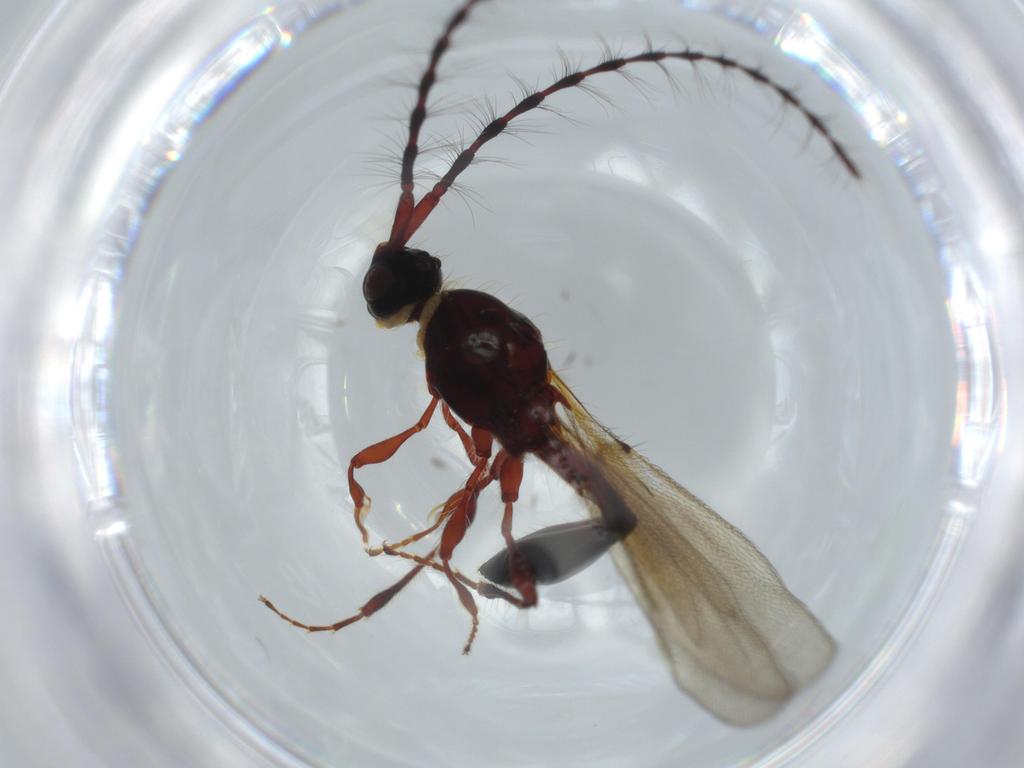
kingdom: Animalia
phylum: Arthropoda
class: Insecta
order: Hymenoptera
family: Diapriidae
